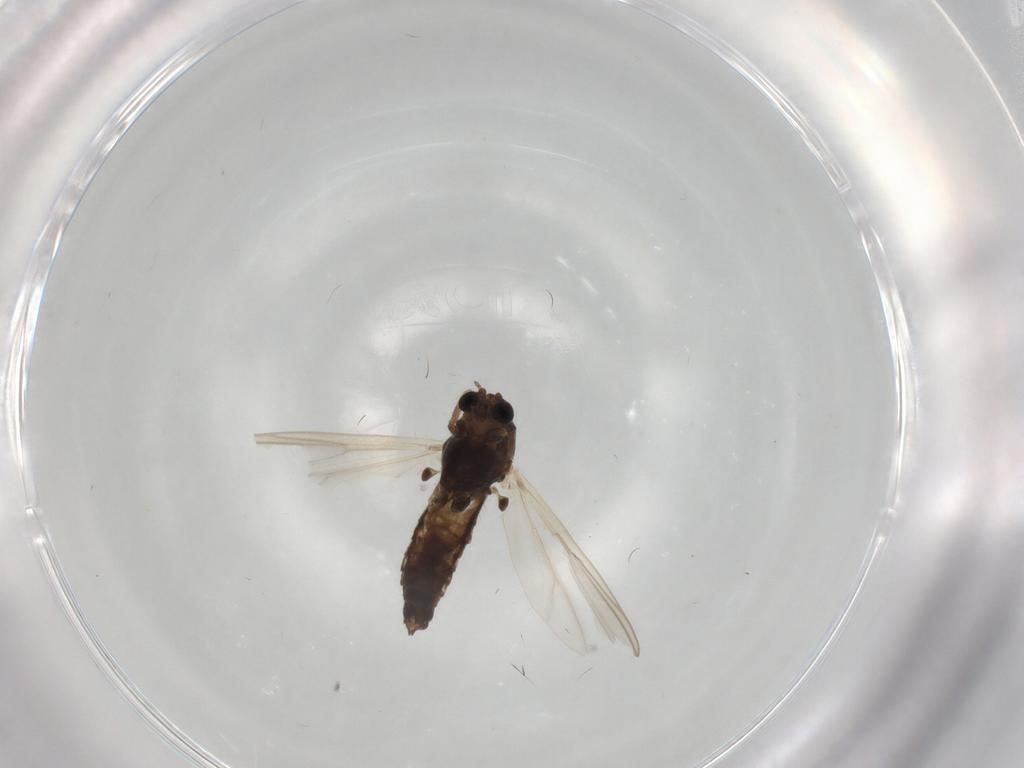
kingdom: Animalia
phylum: Arthropoda
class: Insecta
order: Diptera
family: Chironomidae
